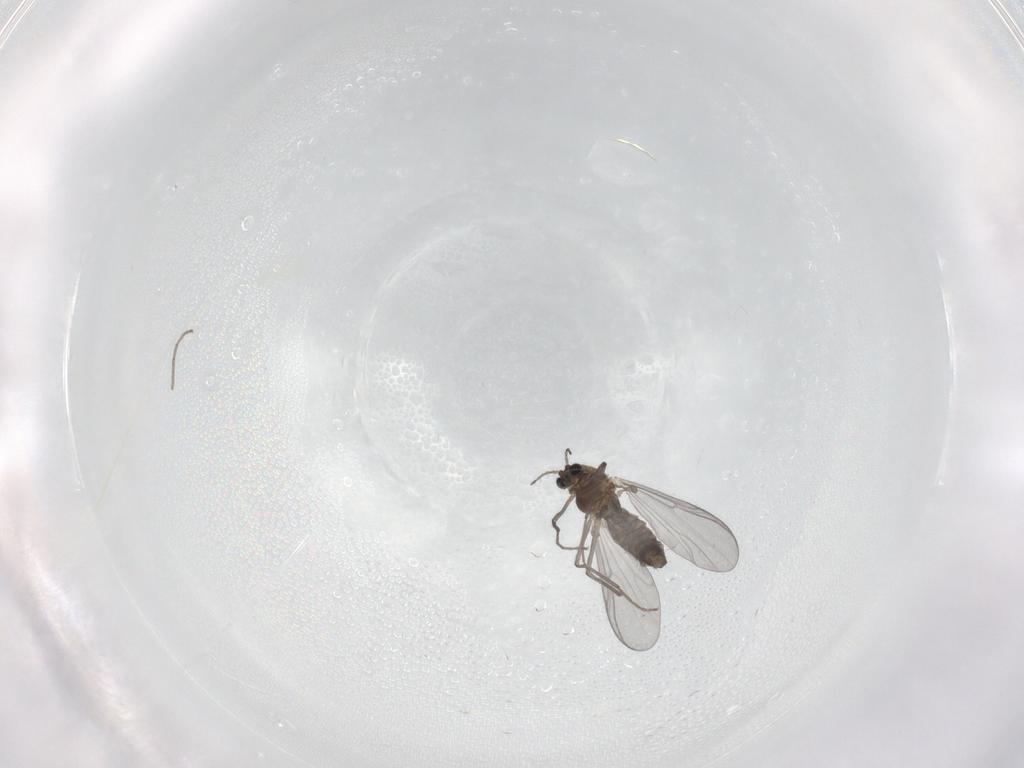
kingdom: Animalia
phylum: Arthropoda
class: Insecta
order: Diptera
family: Chironomidae
